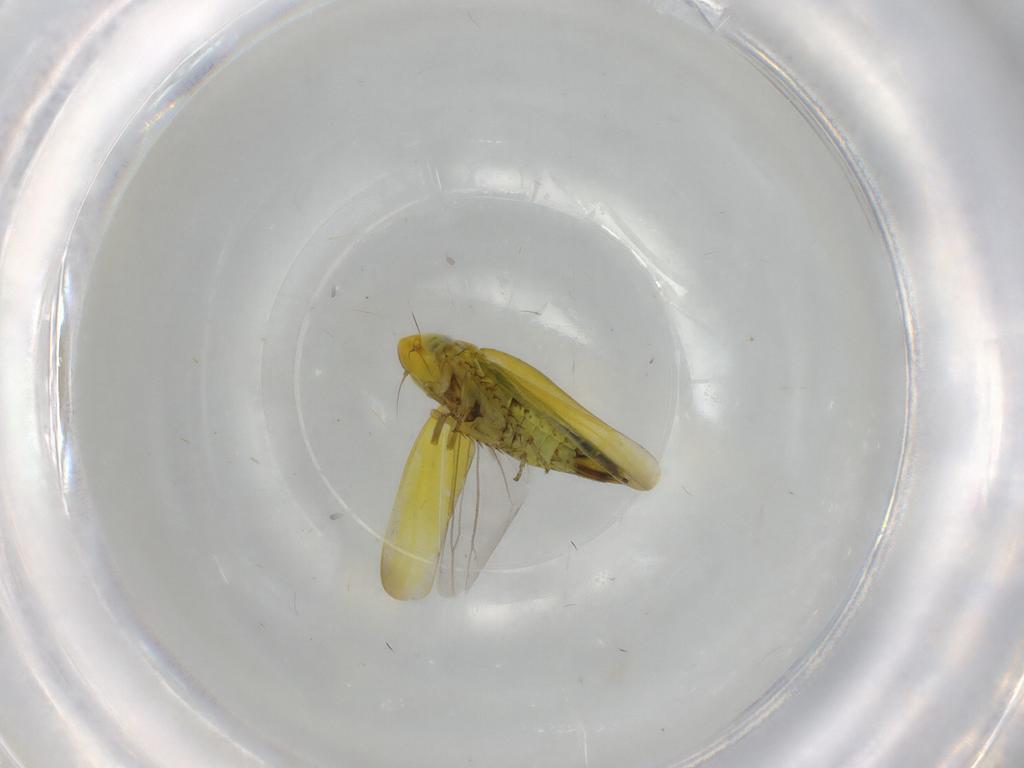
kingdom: Animalia
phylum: Arthropoda
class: Insecta
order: Hemiptera
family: Cicadellidae
